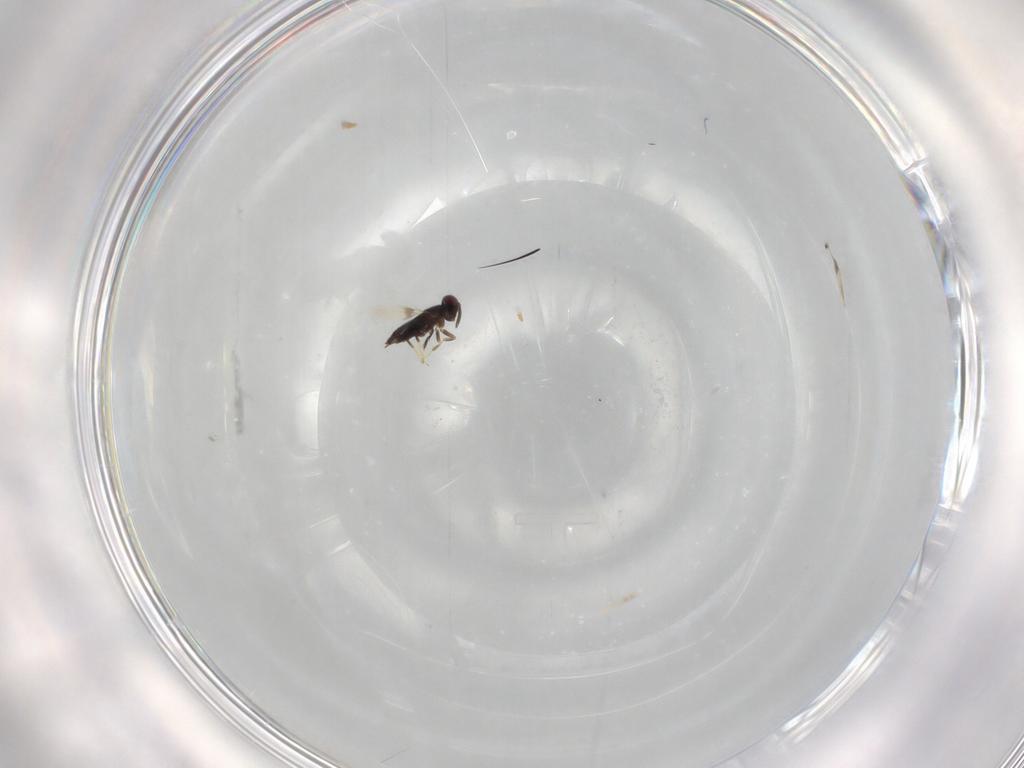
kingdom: Animalia
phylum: Arthropoda
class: Insecta
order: Hymenoptera
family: Signiphoridae
